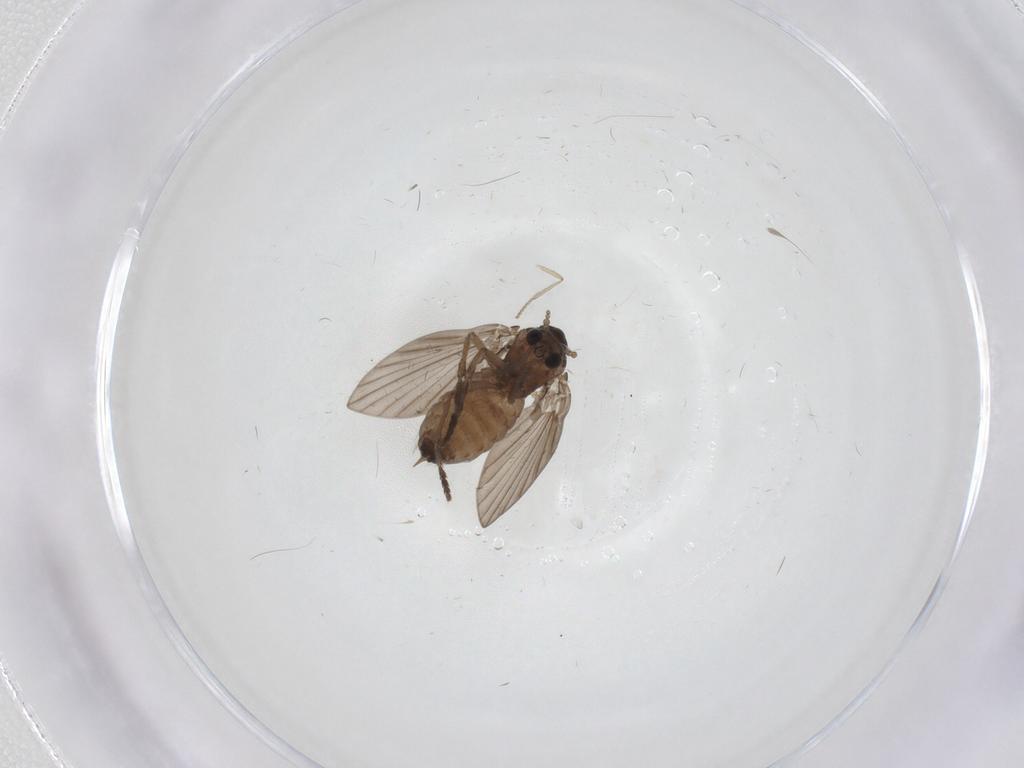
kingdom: Animalia
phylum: Arthropoda
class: Insecta
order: Diptera
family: Psychodidae
